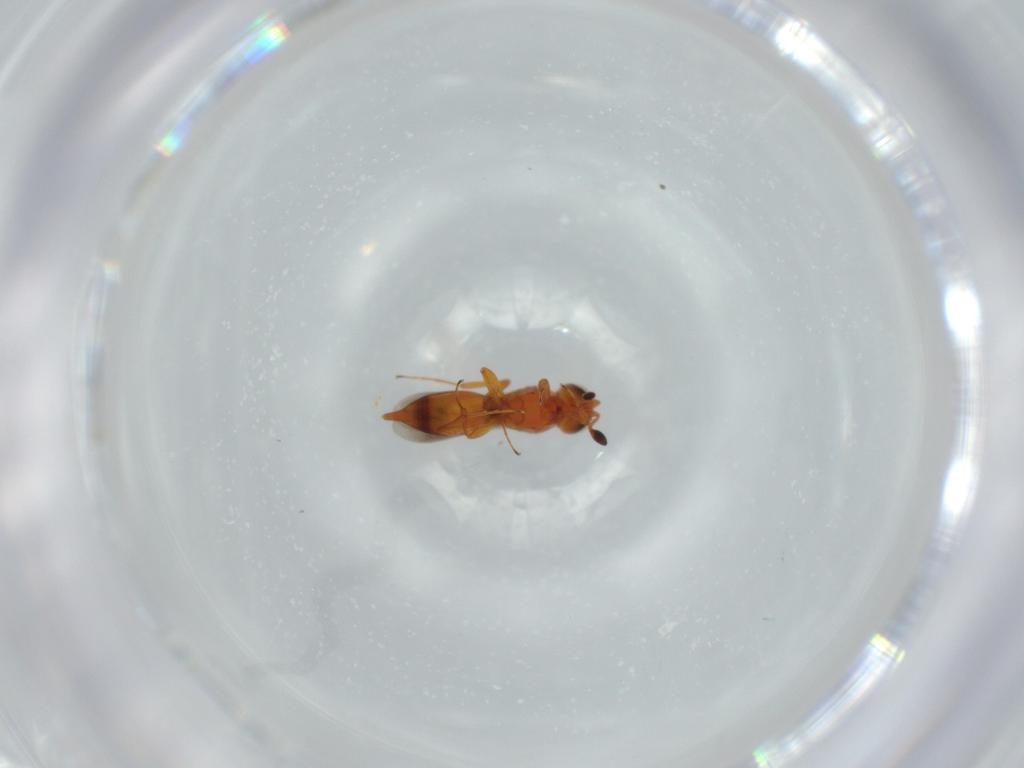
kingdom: Animalia
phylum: Arthropoda
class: Insecta
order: Hymenoptera
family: Platygastridae
